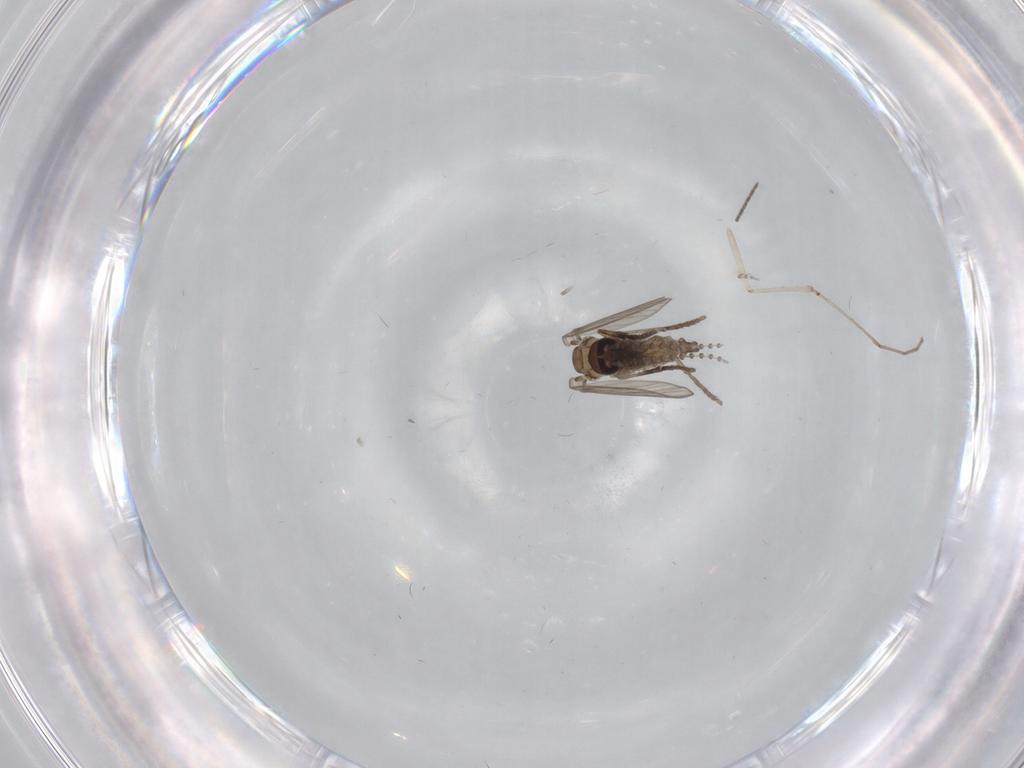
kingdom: Animalia
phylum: Arthropoda
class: Insecta
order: Diptera
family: Psychodidae
